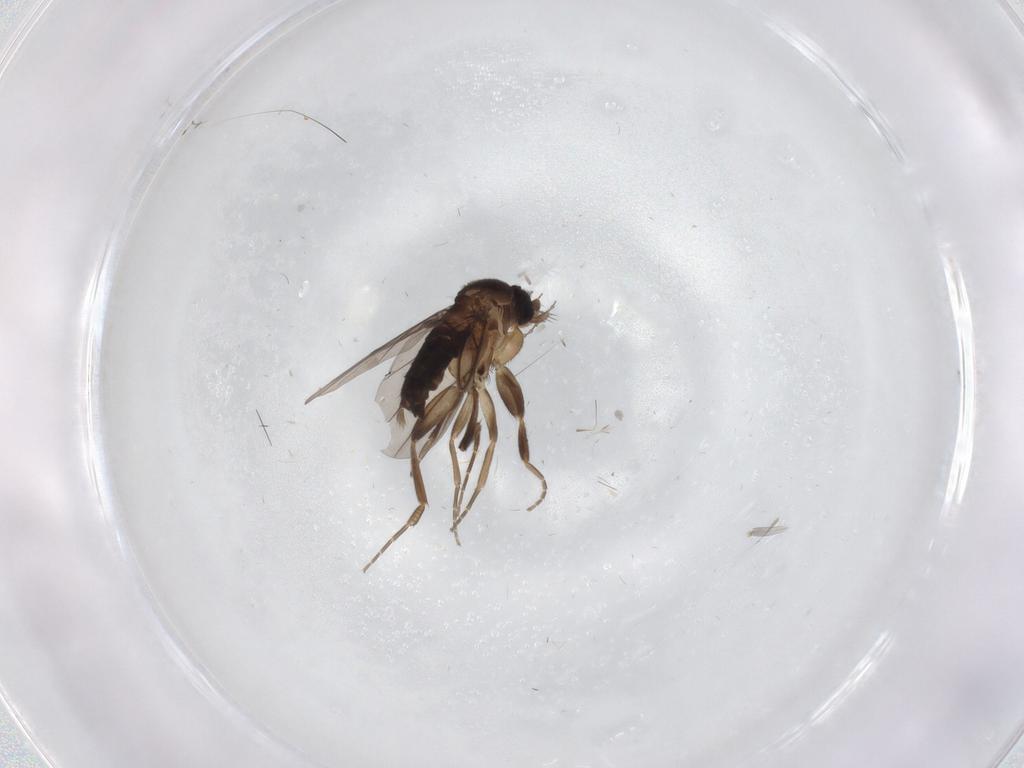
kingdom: Animalia
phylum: Arthropoda
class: Insecta
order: Diptera
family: Phoridae
